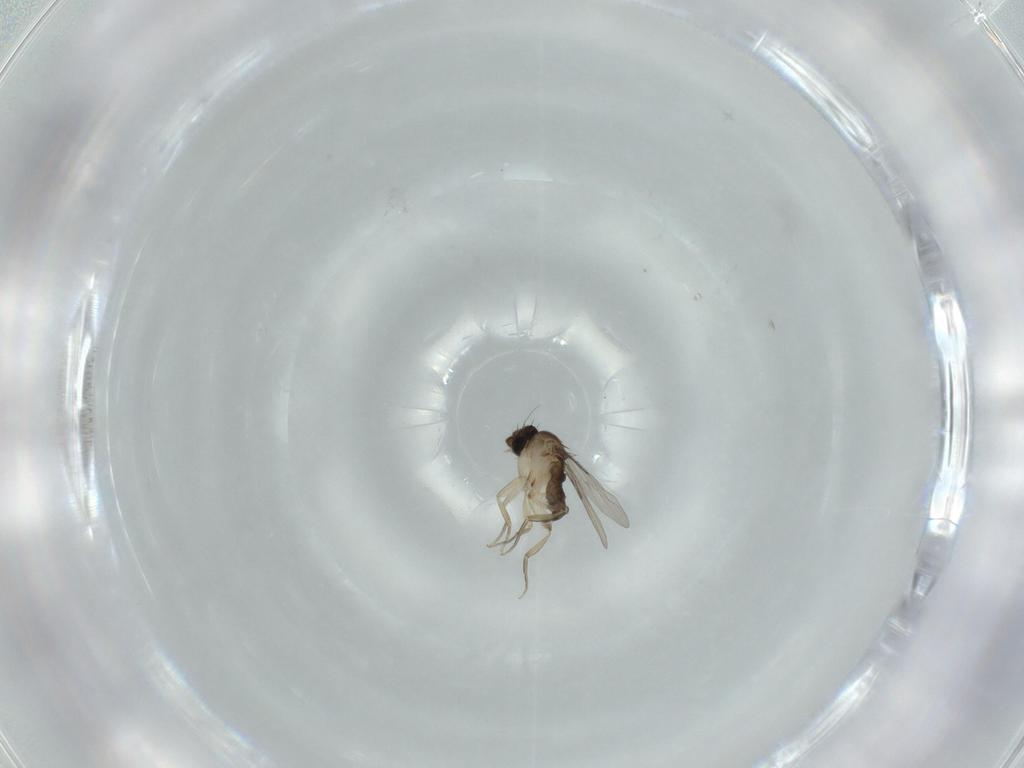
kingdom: Animalia
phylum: Arthropoda
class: Insecta
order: Diptera
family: Phoridae
